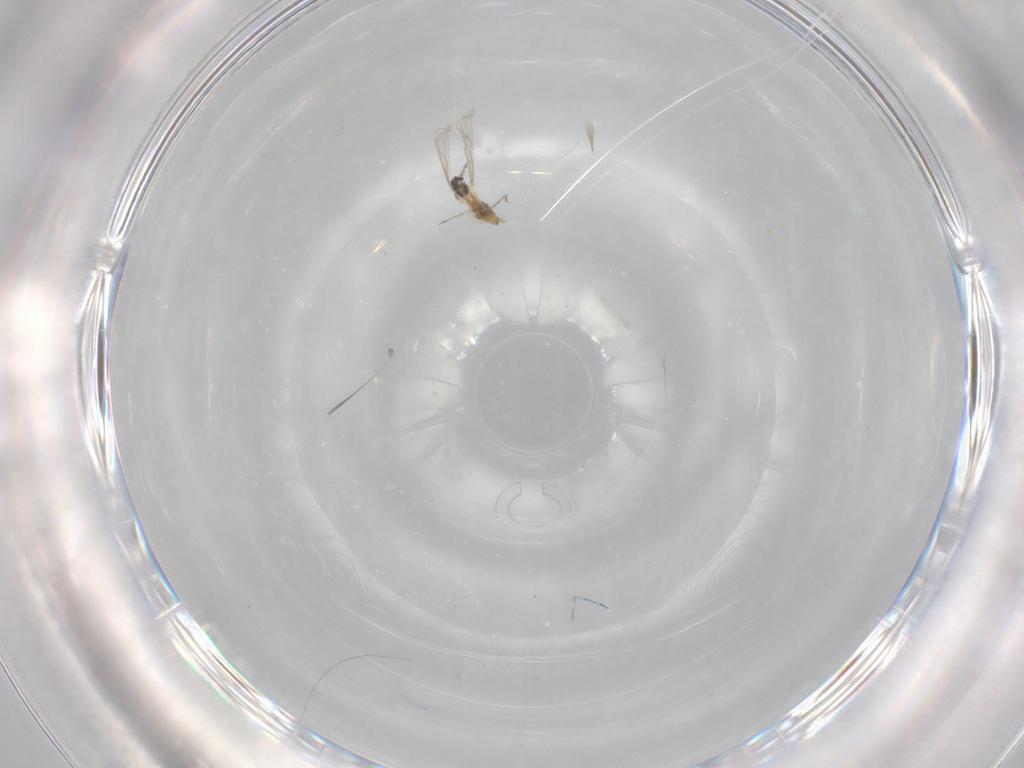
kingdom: Animalia
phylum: Arthropoda
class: Insecta
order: Diptera
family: Cecidomyiidae
